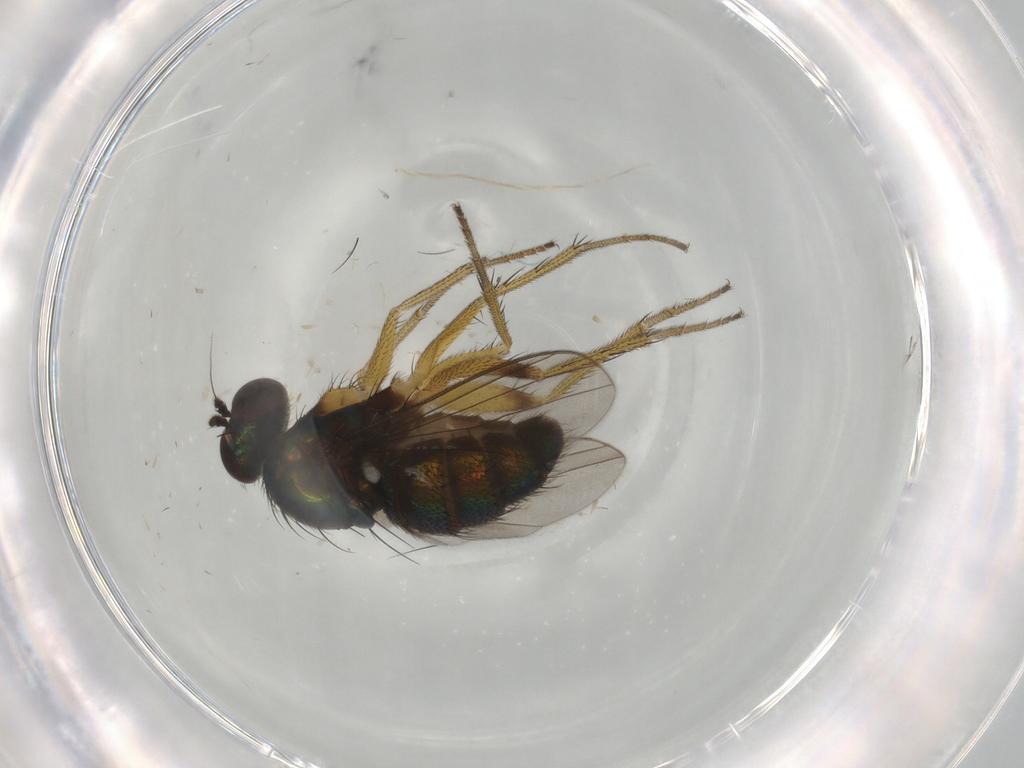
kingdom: Animalia
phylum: Arthropoda
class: Insecta
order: Diptera
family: Dolichopodidae
